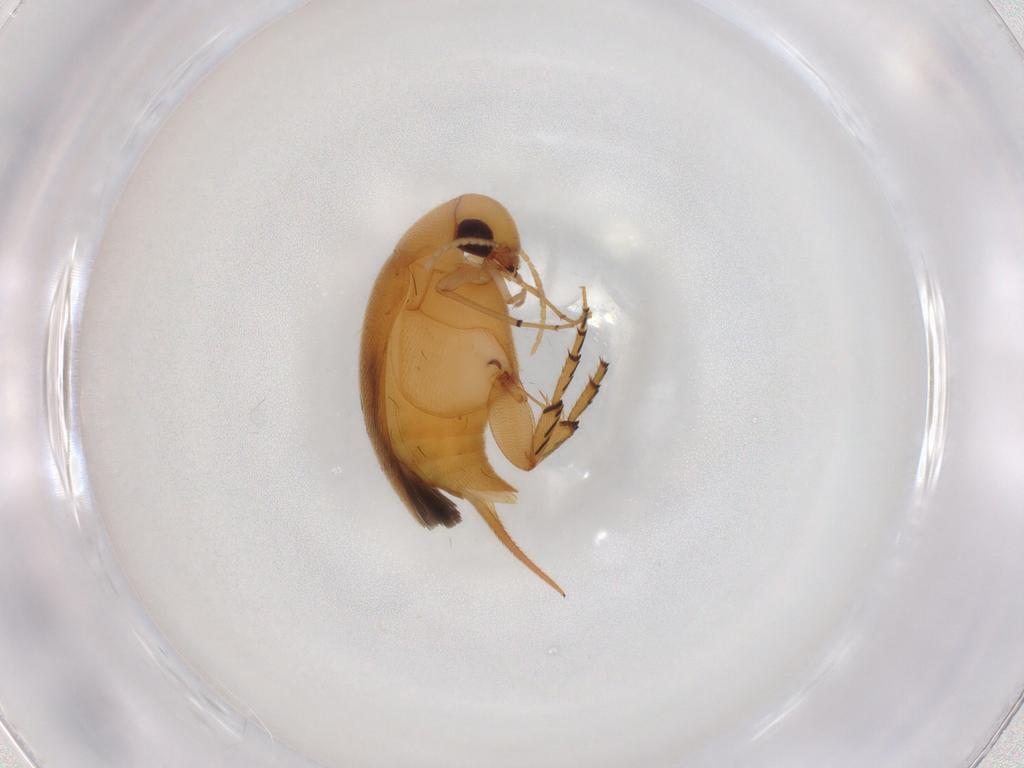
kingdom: Animalia
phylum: Arthropoda
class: Insecta
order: Coleoptera
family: Mordellidae
